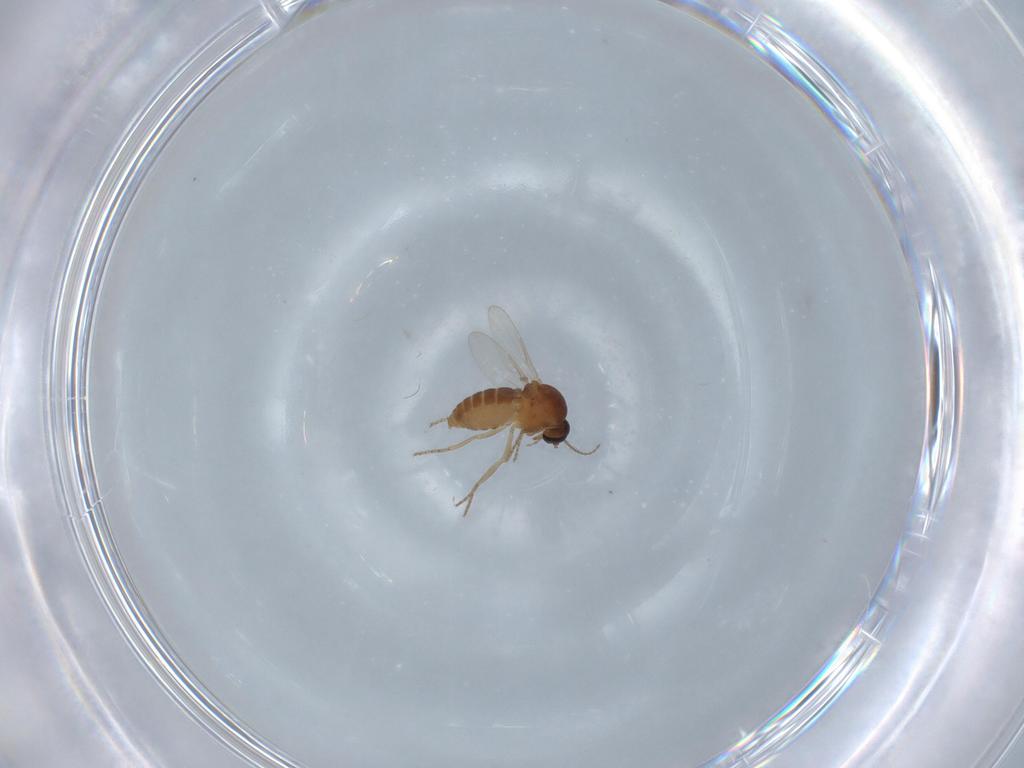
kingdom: Animalia
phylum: Arthropoda
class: Insecta
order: Diptera
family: Ceratopogonidae
